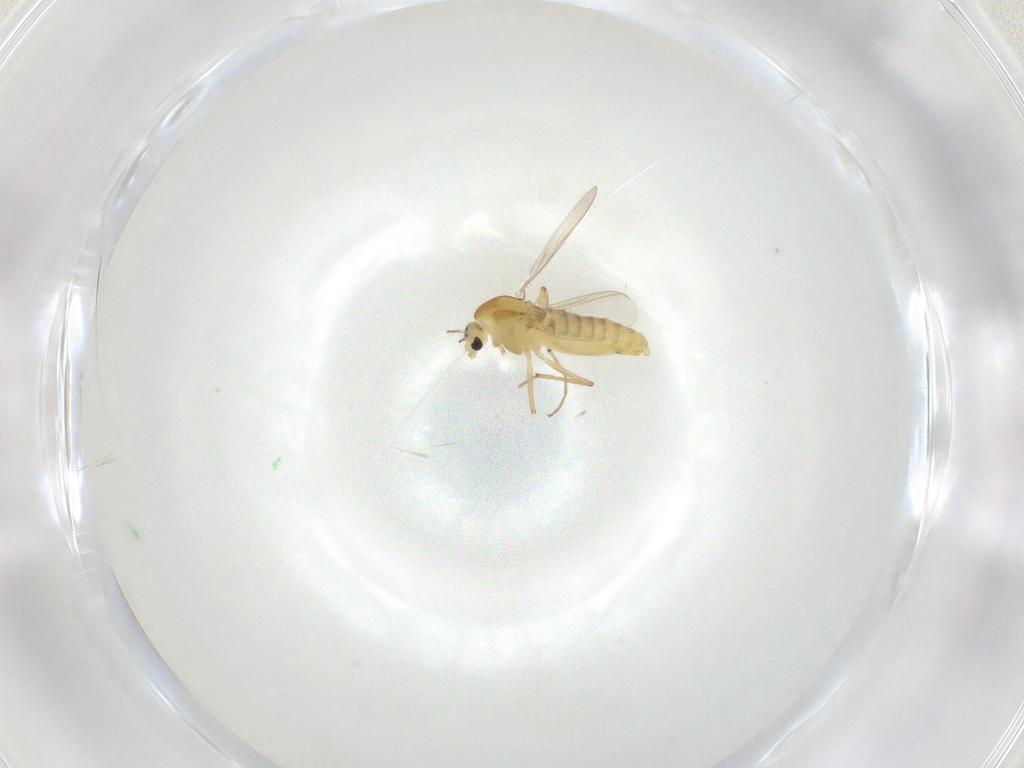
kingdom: Animalia
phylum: Arthropoda
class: Insecta
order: Diptera
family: Chironomidae
